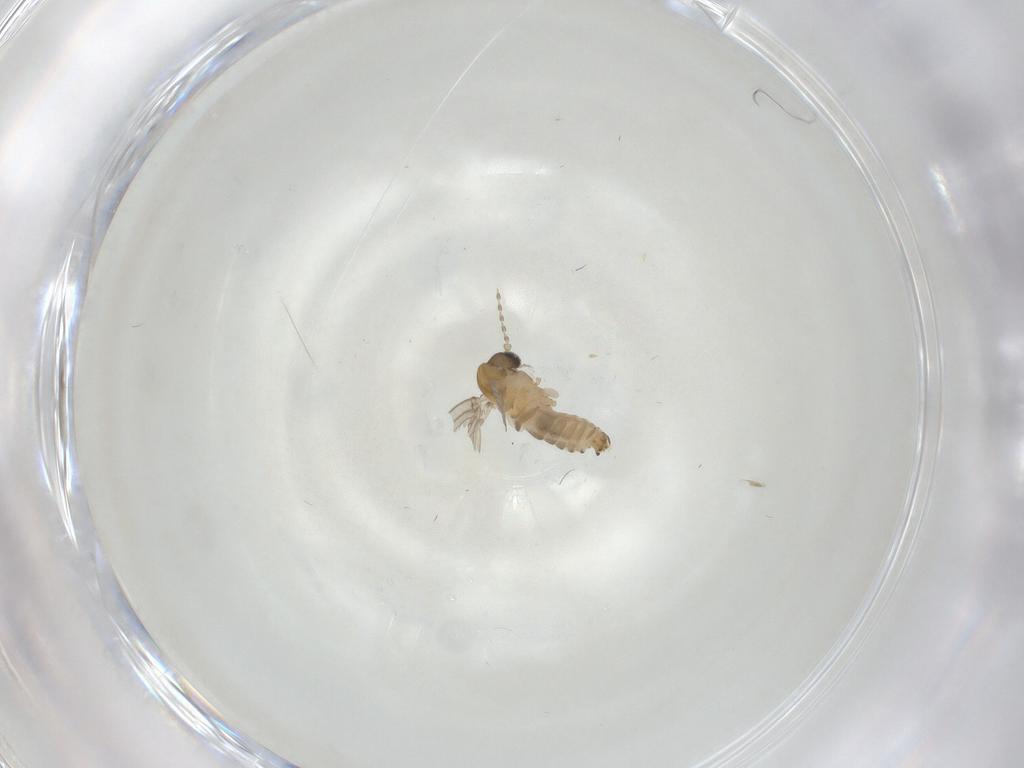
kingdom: Animalia
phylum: Arthropoda
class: Insecta
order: Diptera
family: Psychodidae
